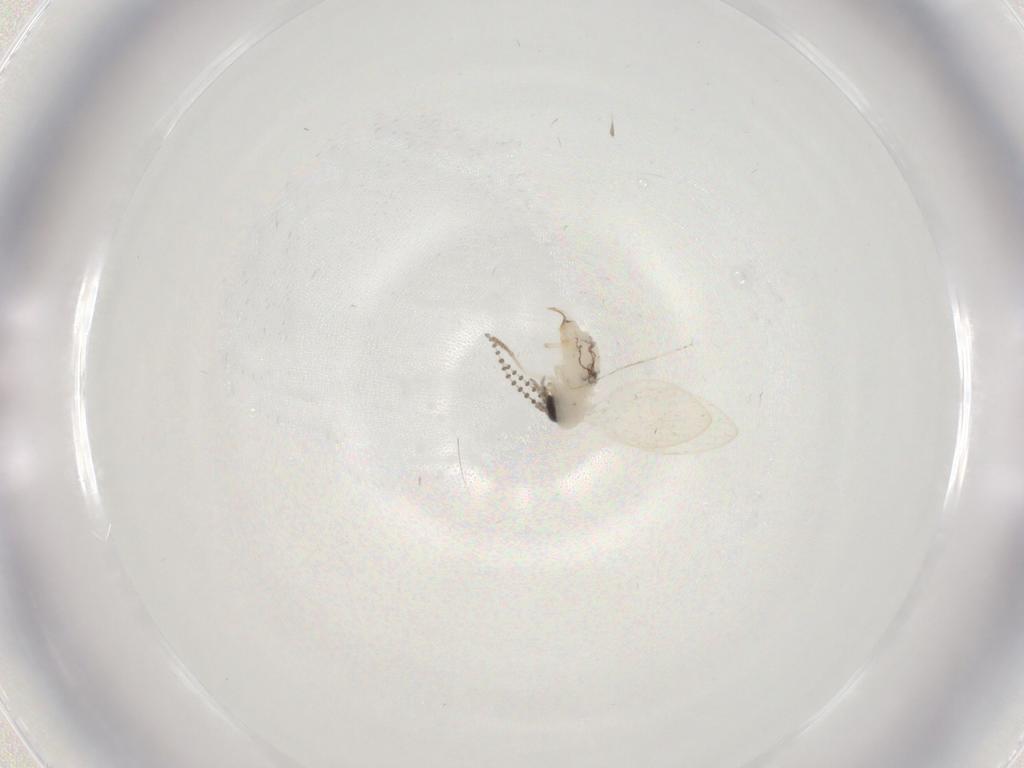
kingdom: Animalia
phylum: Arthropoda
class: Insecta
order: Diptera
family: Psychodidae
